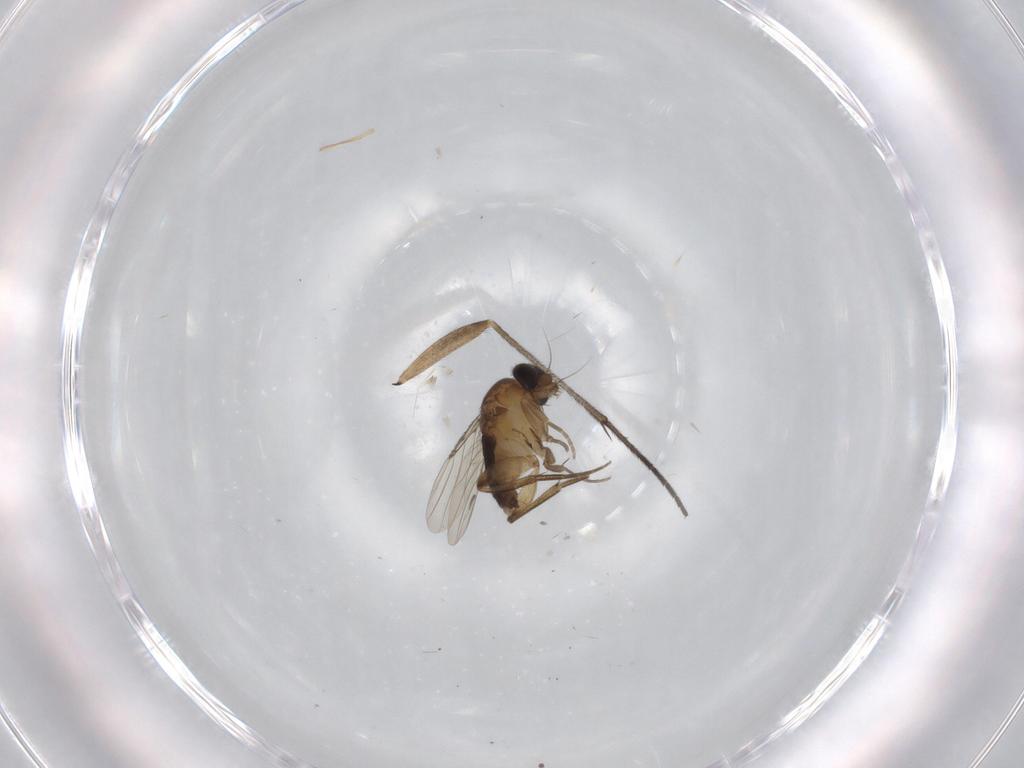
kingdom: Animalia
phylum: Arthropoda
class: Insecta
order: Diptera
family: Phoridae
